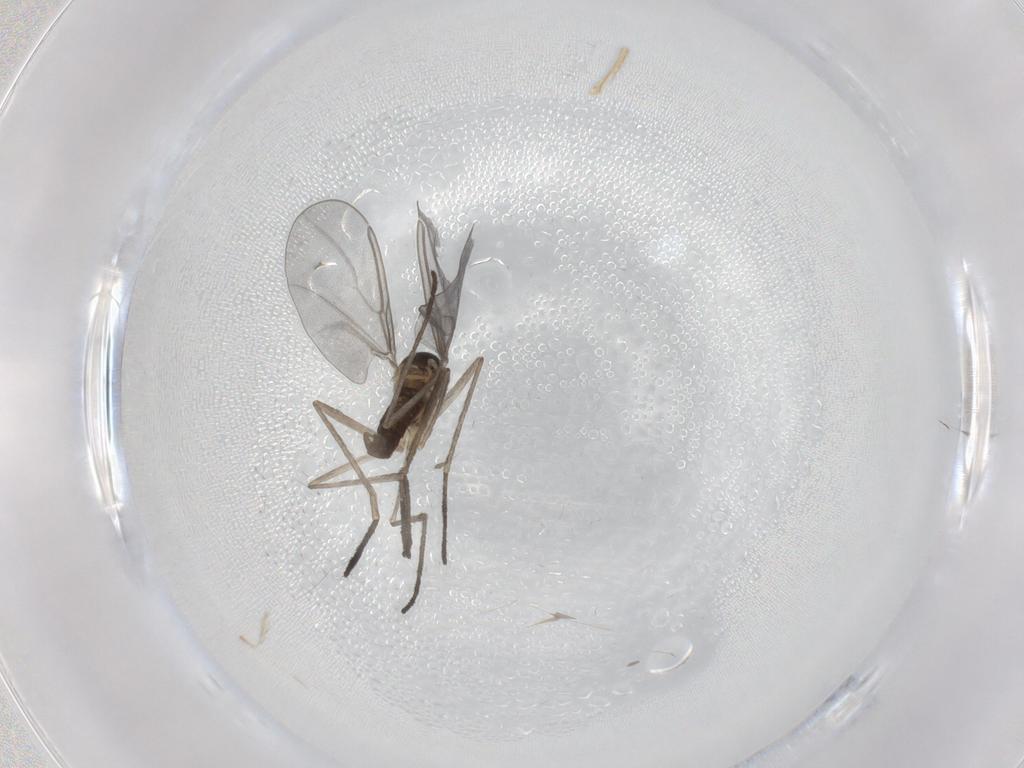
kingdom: Animalia
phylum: Arthropoda
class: Insecta
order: Diptera
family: Cecidomyiidae
